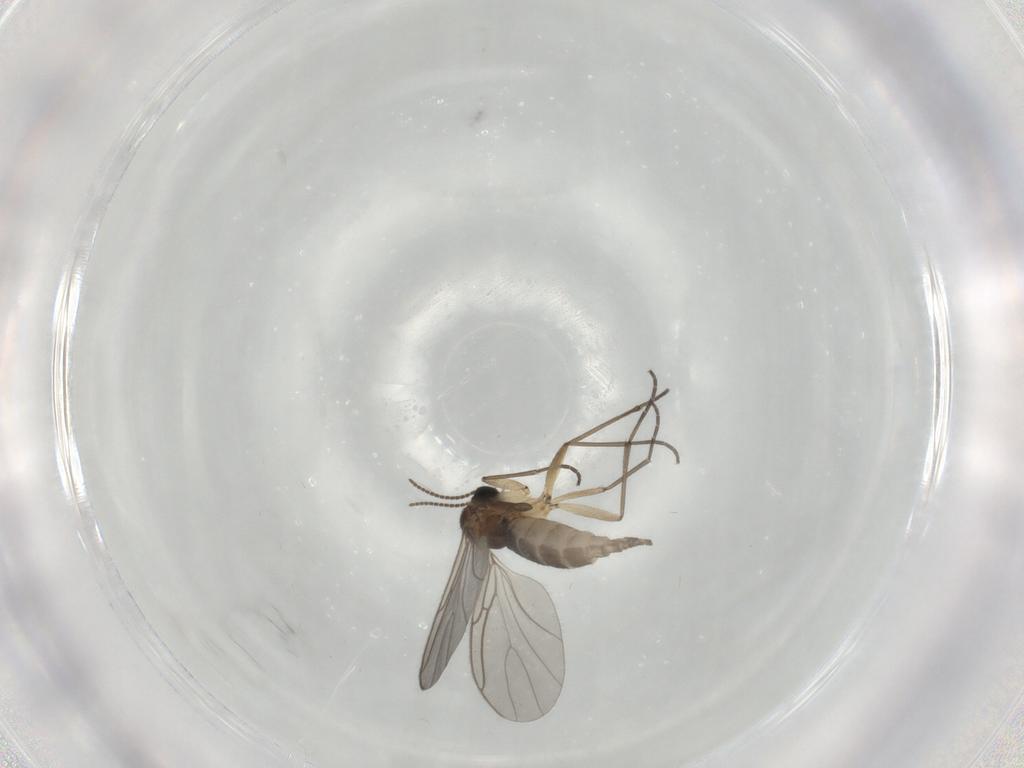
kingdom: Animalia
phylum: Arthropoda
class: Insecta
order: Diptera
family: Sciaridae
